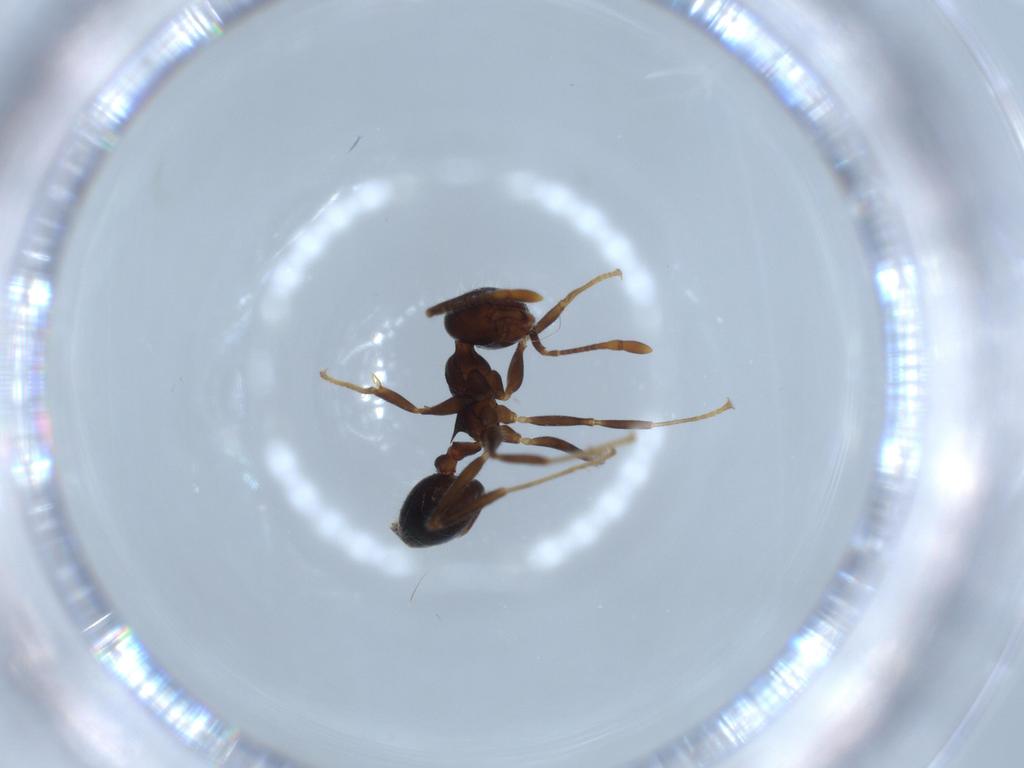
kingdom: Animalia
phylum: Arthropoda
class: Insecta
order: Hymenoptera
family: Formicidae
